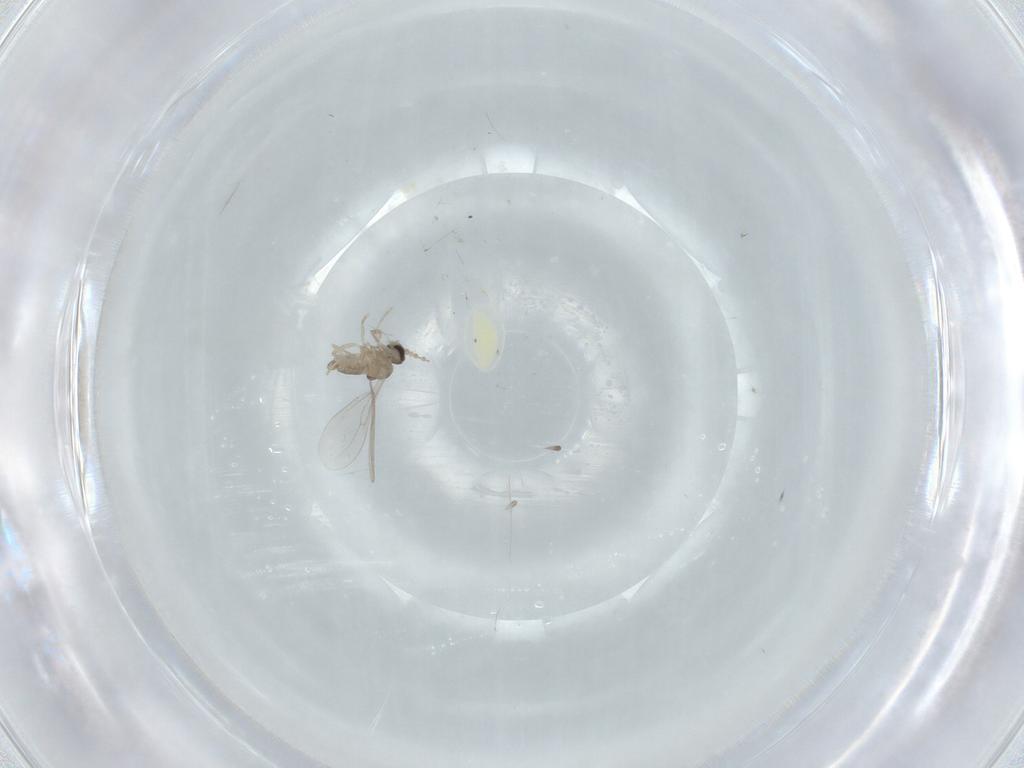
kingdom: Animalia
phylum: Arthropoda
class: Insecta
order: Diptera
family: Cecidomyiidae
